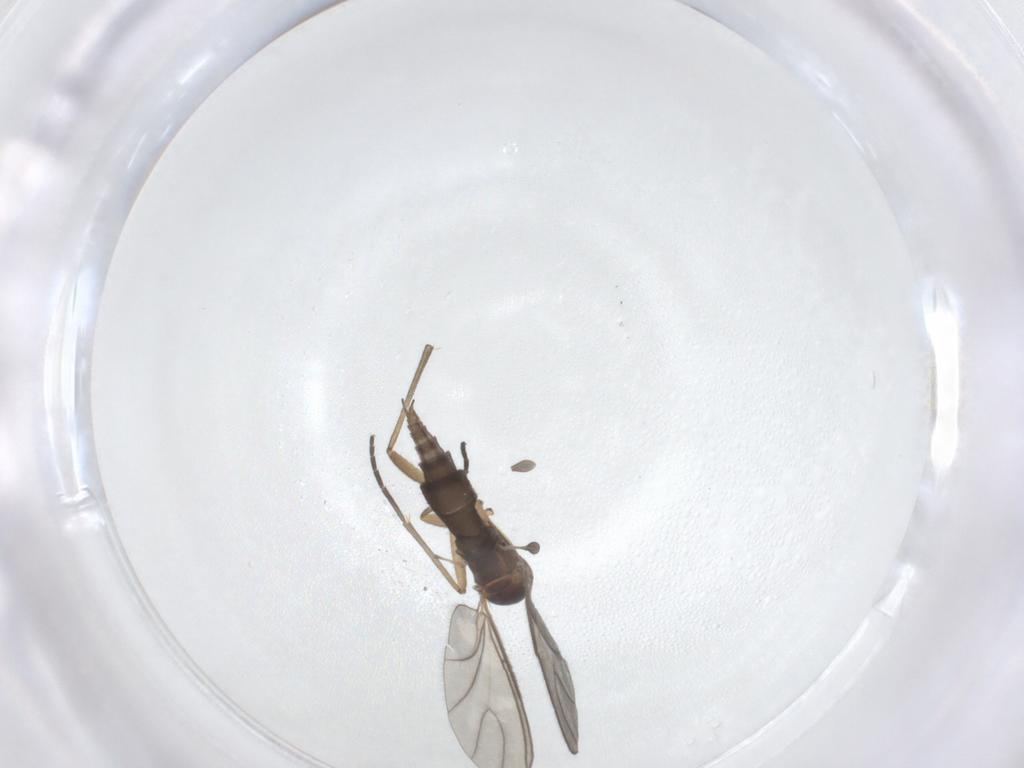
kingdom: Animalia
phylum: Arthropoda
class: Insecta
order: Diptera
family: Sciaridae
